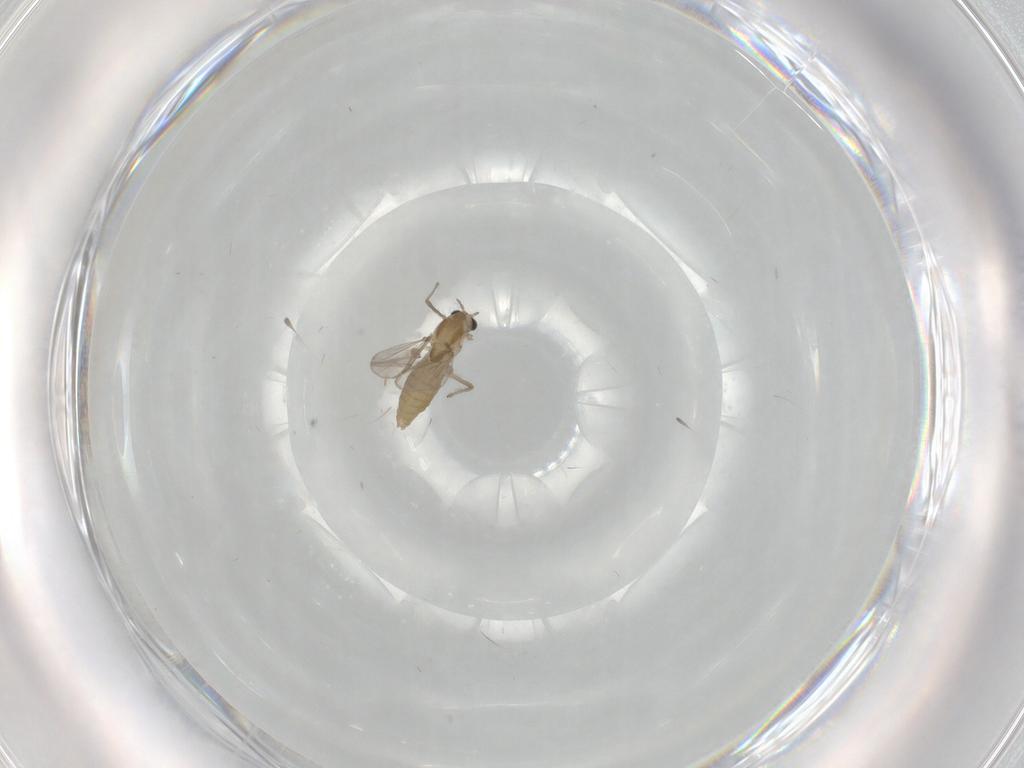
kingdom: Animalia
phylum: Arthropoda
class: Insecta
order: Diptera
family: Chironomidae
